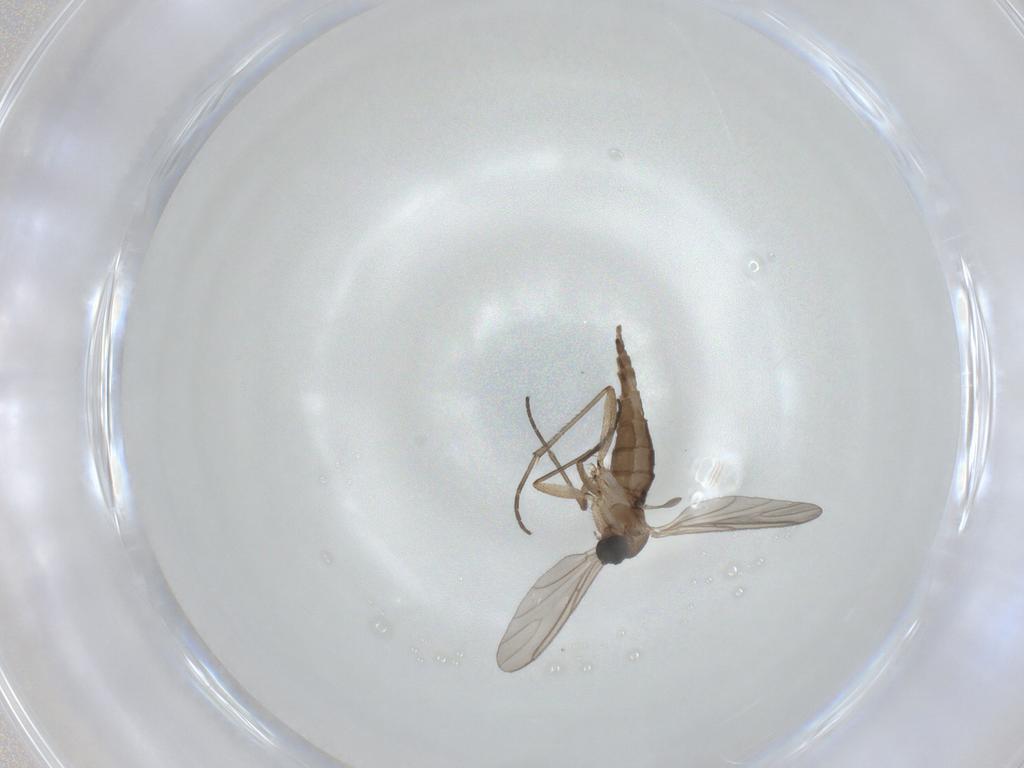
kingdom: Animalia
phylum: Arthropoda
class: Insecta
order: Diptera
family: Sciaridae
